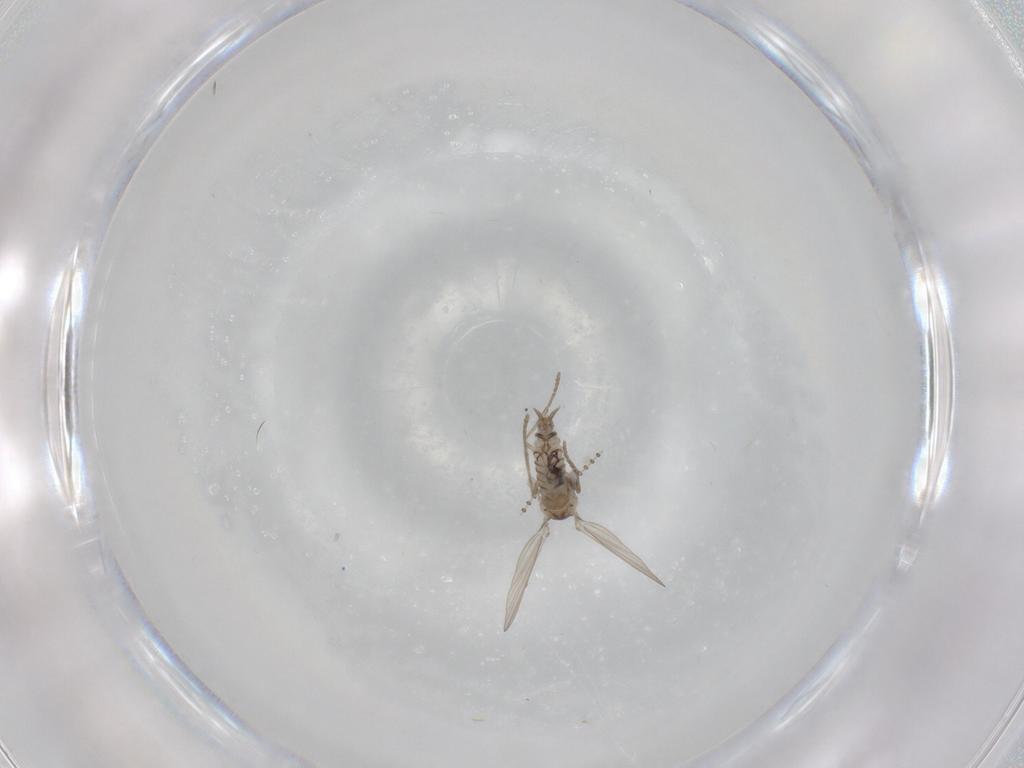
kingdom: Animalia
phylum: Arthropoda
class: Insecta
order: Diptera
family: Psychodidae
